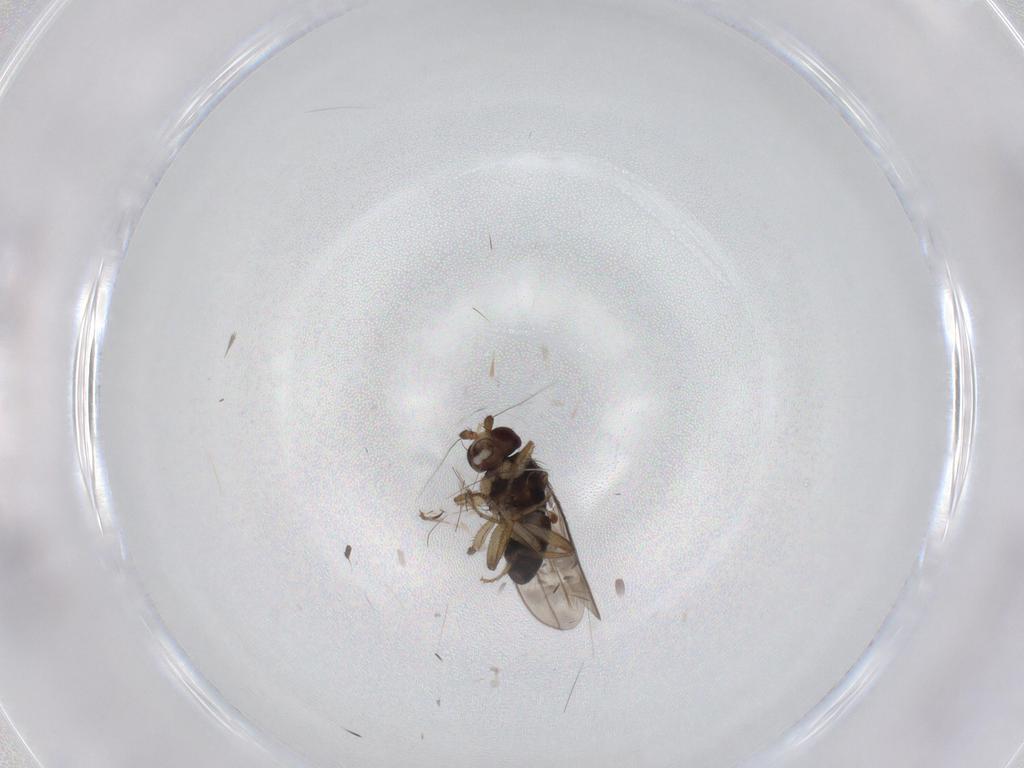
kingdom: Animalia
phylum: Arthropoda
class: Insecta
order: Diptera
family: Sphaeroceridae
